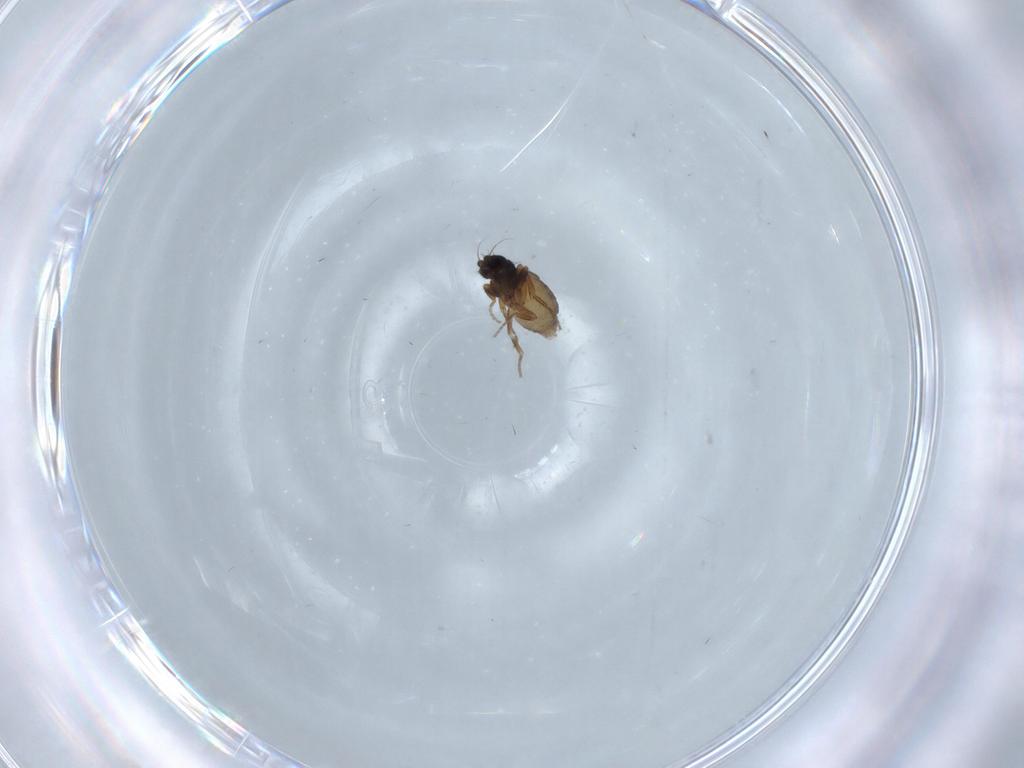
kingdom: Animalia
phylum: Arthropoda
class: Insecta
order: Diptera
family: Phoridae
